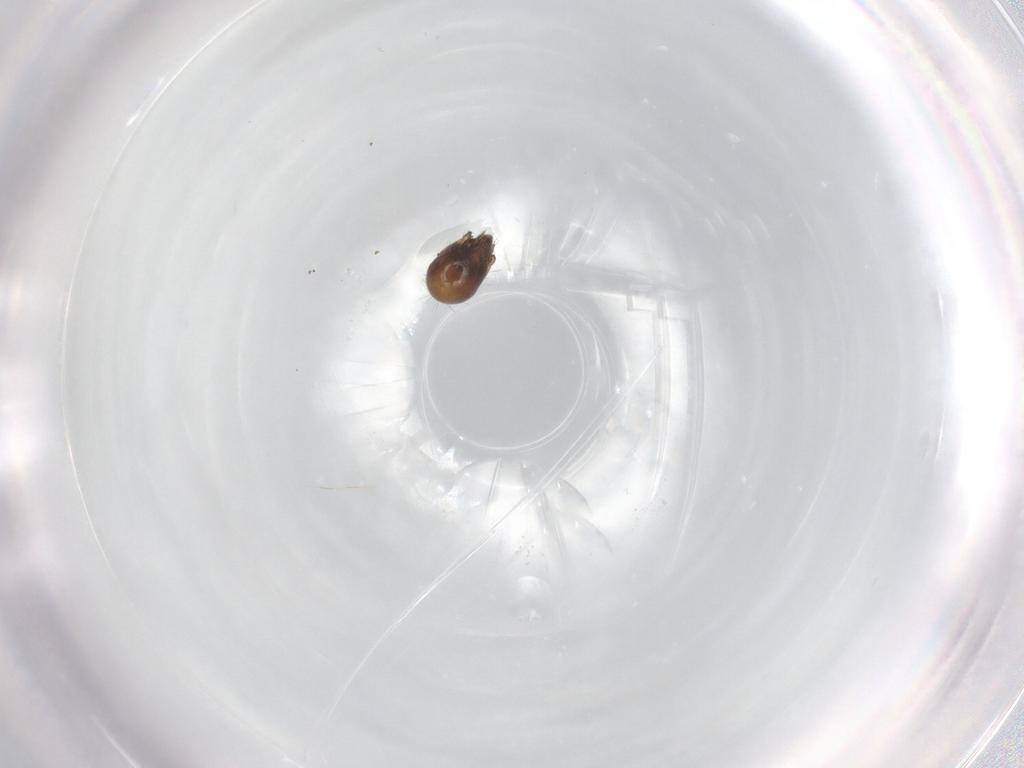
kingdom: Animalia
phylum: Arthropoda
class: Arachnida
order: Sarcoptiformes
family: Humerobatidae
